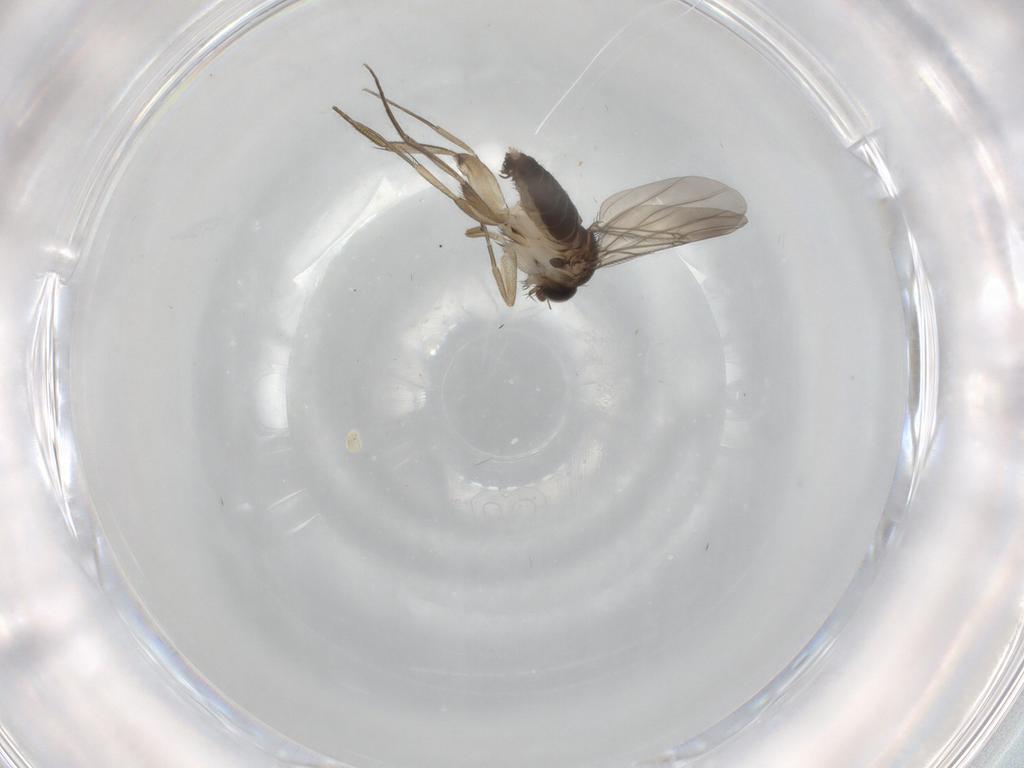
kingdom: Animalia
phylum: Arthropoda
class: Insecta
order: Diptera
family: Phoridae
